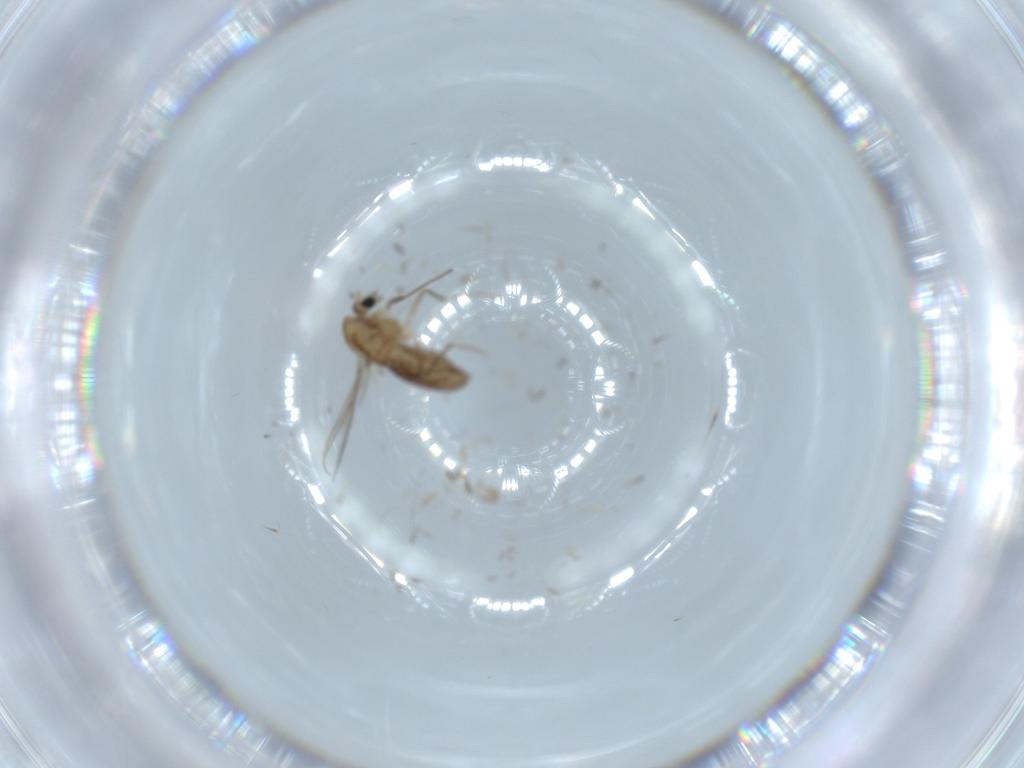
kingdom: Animalia
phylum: Arthropoda
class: Insecta
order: Diptera
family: Chironomidae
